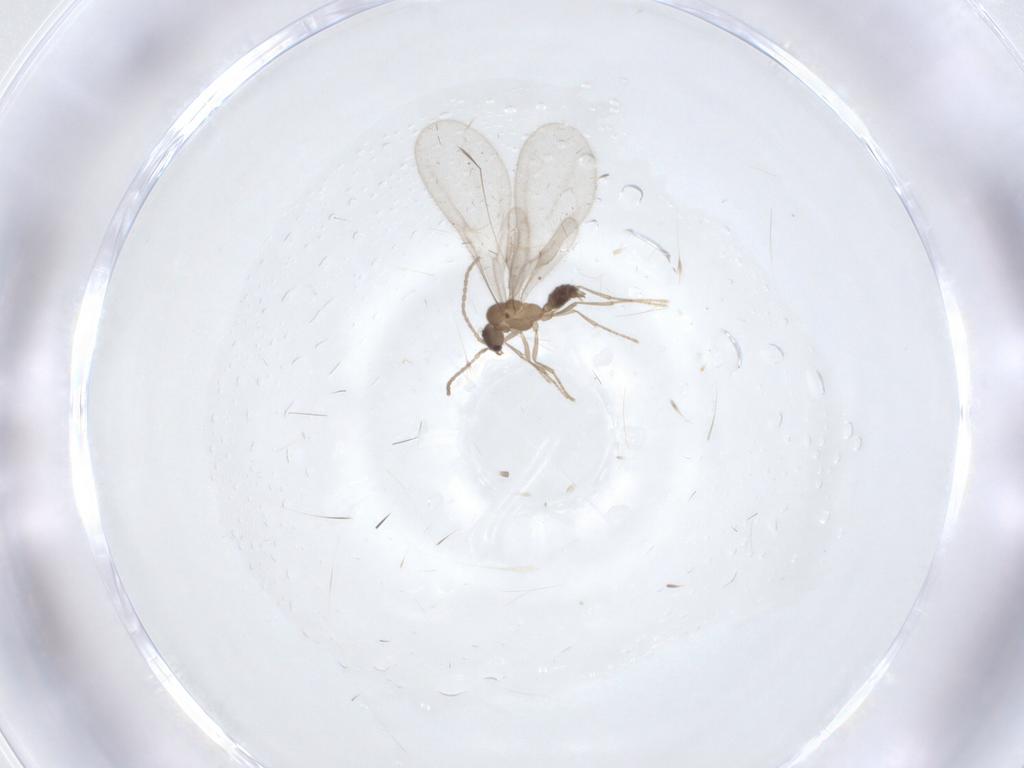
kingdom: Animalia
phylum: Arthropoda
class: Insecta
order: Hymenoptera
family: Formicidae
